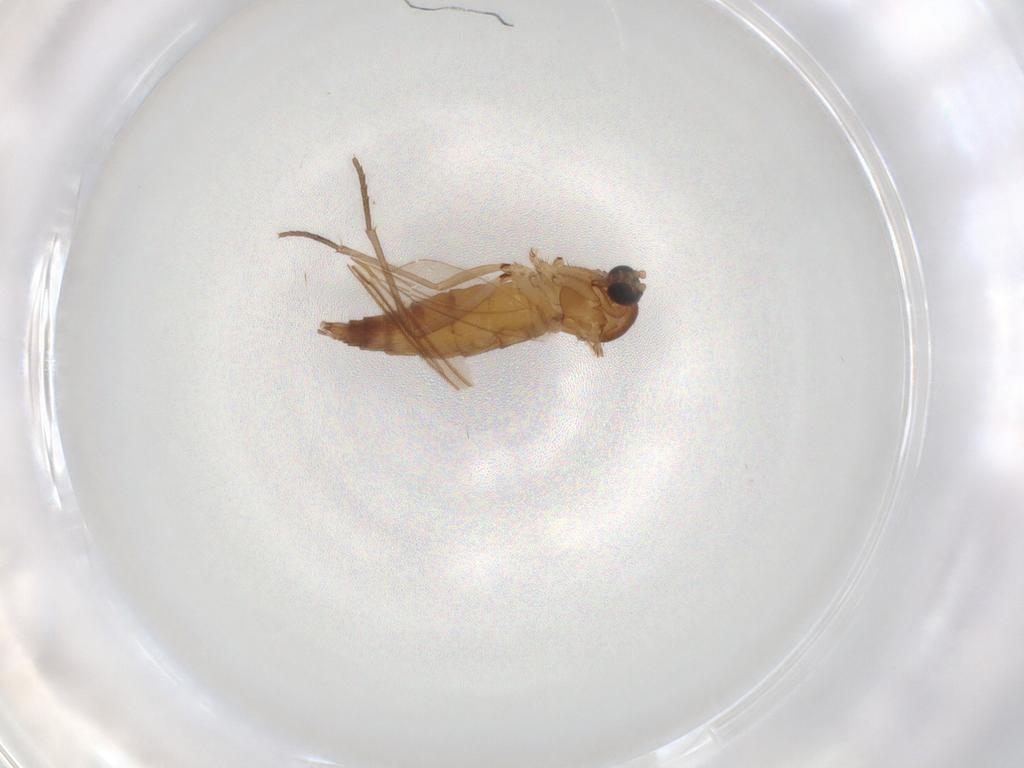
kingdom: Animalia
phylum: Arthropoda
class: Insecta
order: Diptera
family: Sciaridae
